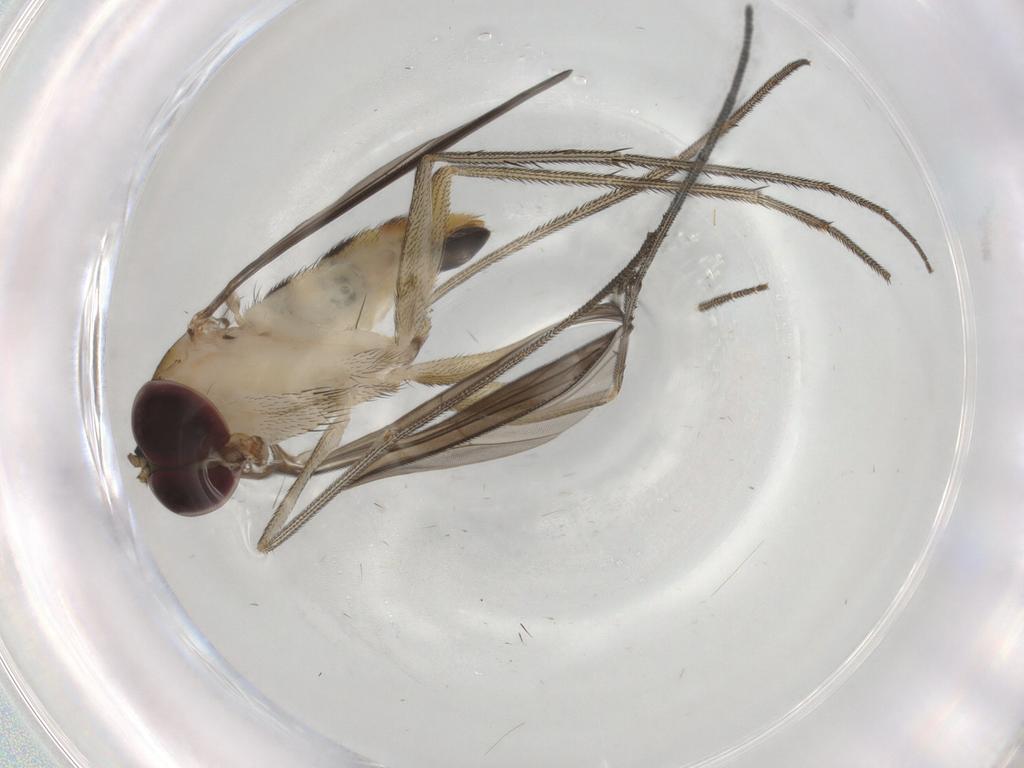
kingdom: Animalia
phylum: Arthropoda
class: Insecta
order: Diptera
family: Dolichopodidae
